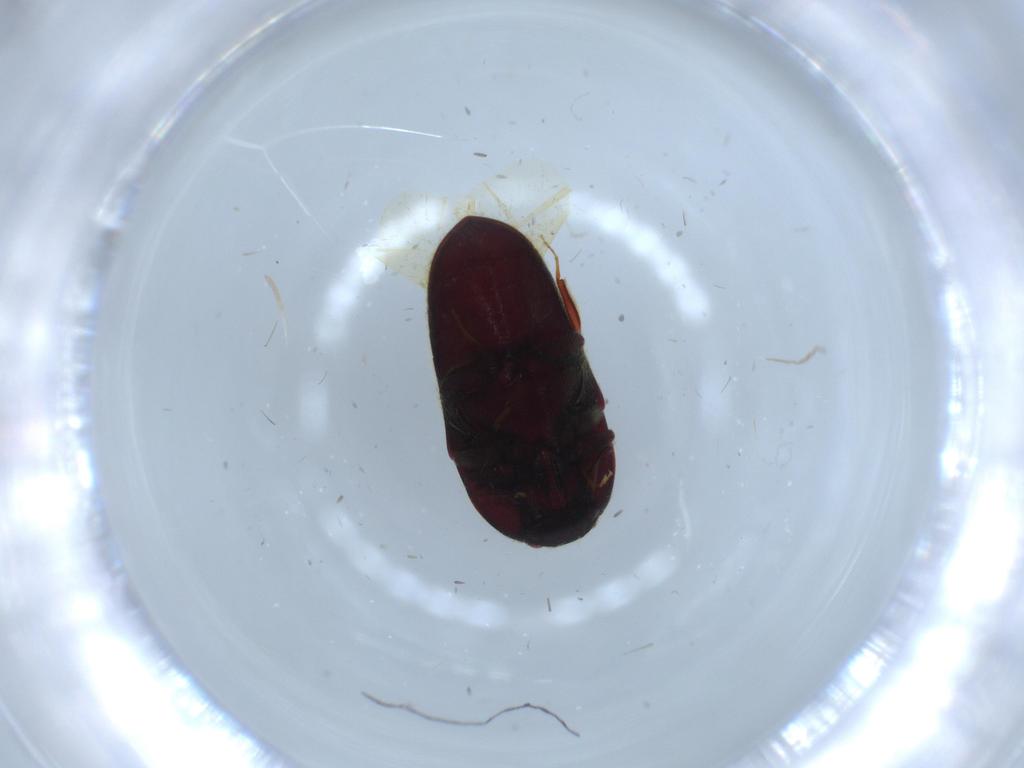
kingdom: Animalia
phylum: Arthropoda
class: Insecta
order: Coleoptera
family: Throscidae
